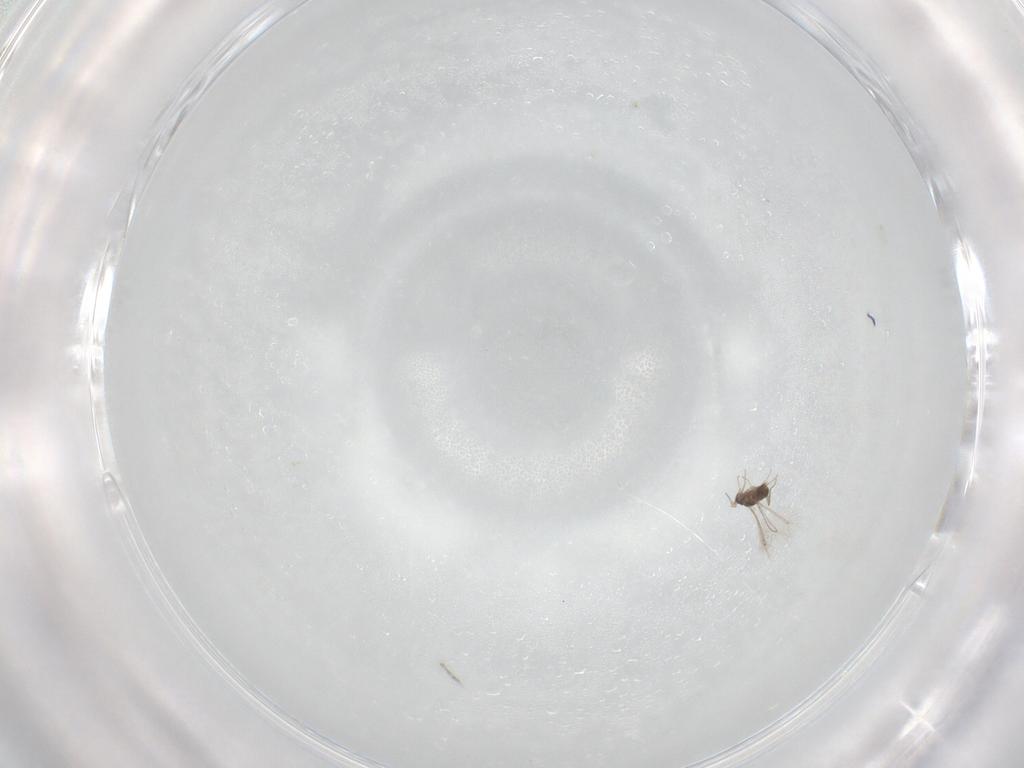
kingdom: Animalia
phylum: Arthropoda
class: Insecta
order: Hymenoptera
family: Mymaridae
